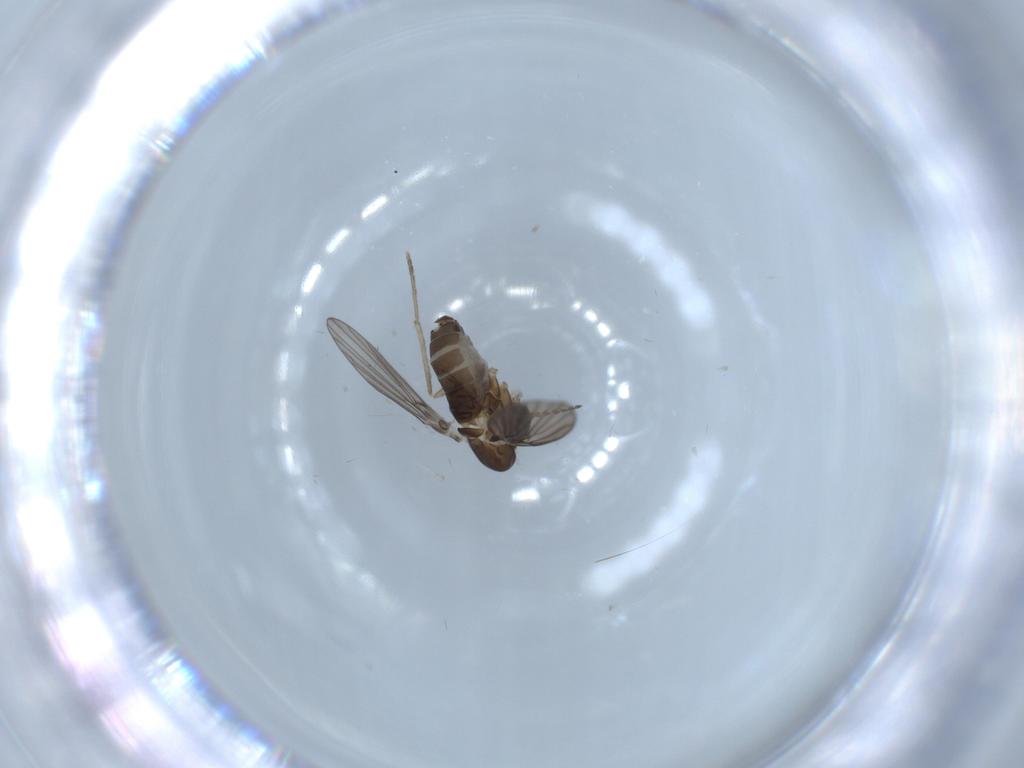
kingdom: Animalia
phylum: Arthropoda
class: Insecta
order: Diptera
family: Psychodidae
